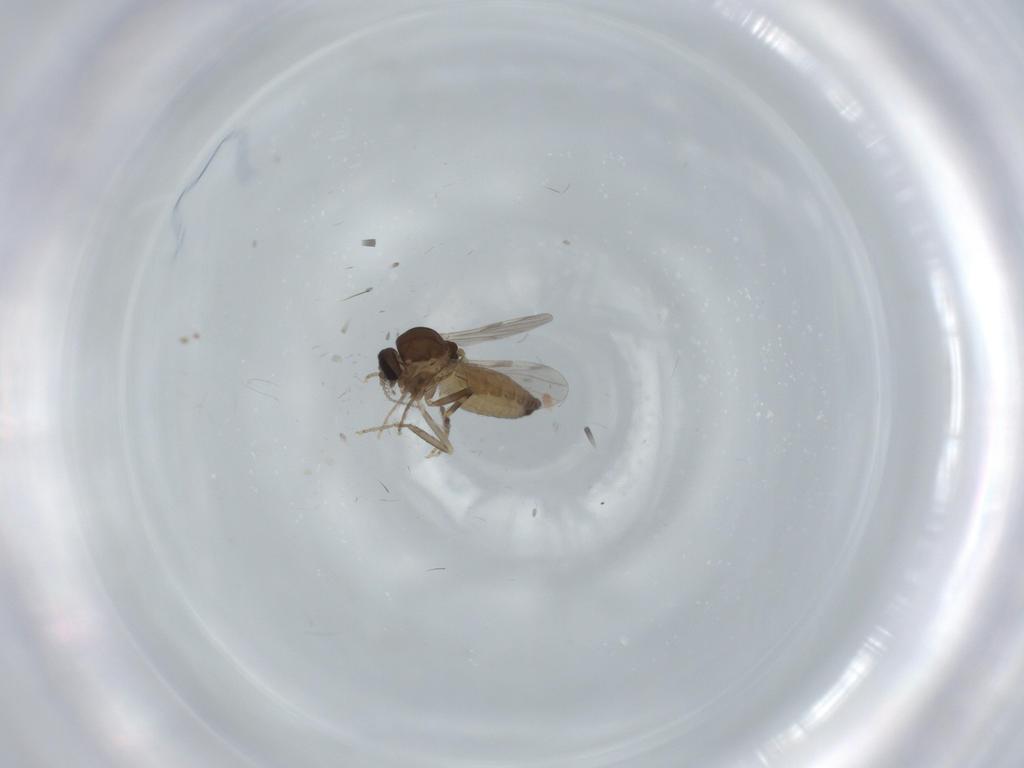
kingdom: Animalia
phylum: Arthropoda
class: Insecta
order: Diptera
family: Ceratopogonidae
